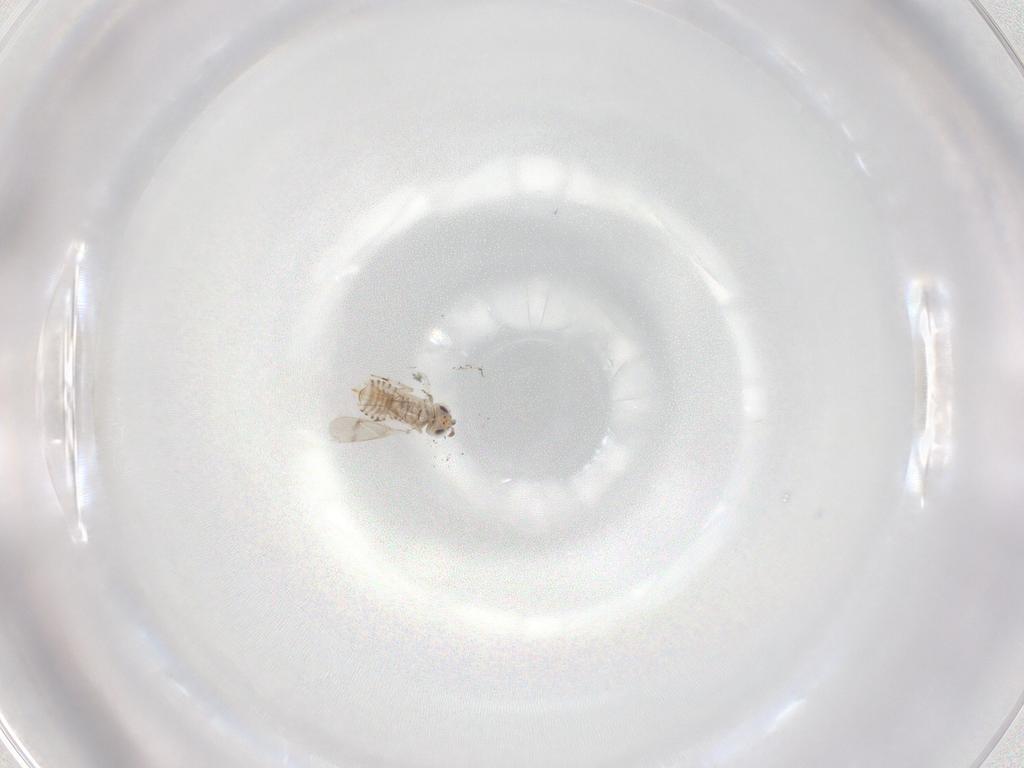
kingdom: Animalia
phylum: Arthropoda
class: Insecta
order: Hymenoptera
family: Aphelinidae
